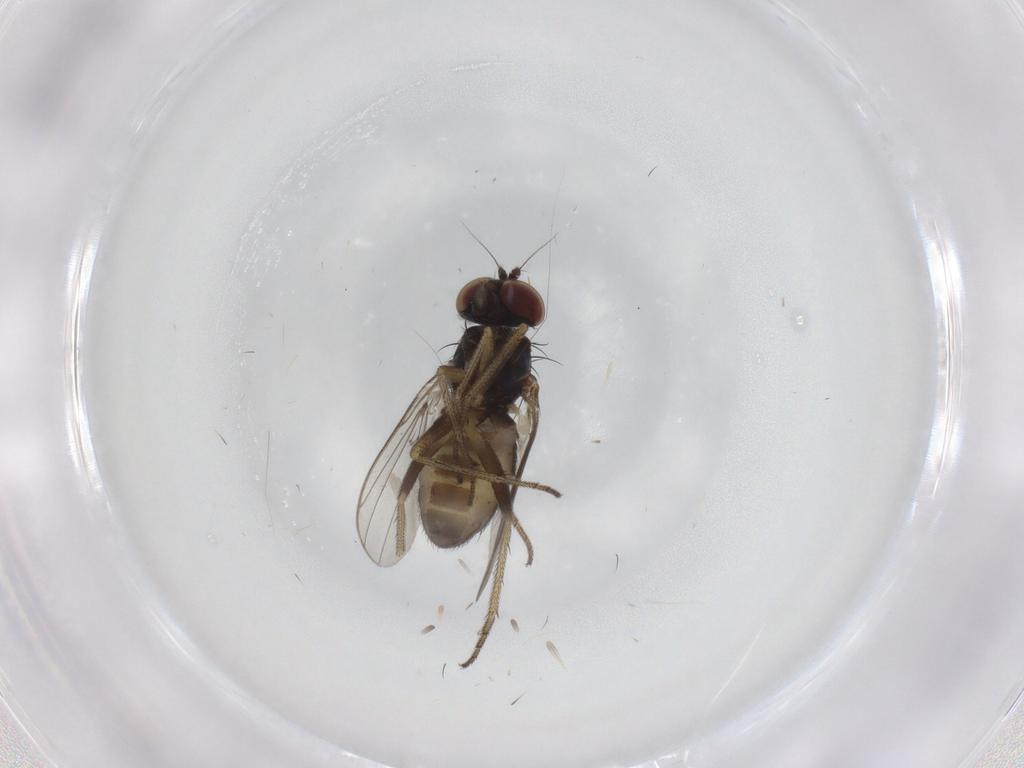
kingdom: Animalia
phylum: Arthropoda
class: Insecta
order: Diptera
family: Dolichopodidae
